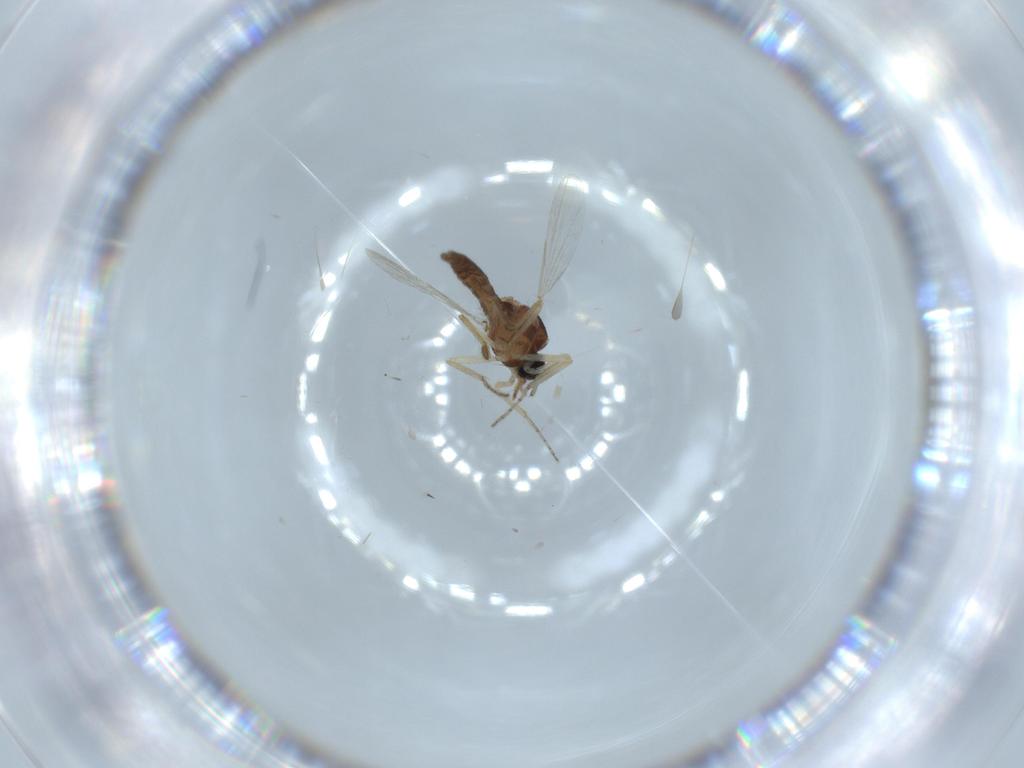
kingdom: Animalia
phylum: Arthropoda
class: Insecta
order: Diptera
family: Ceratopogonidae
